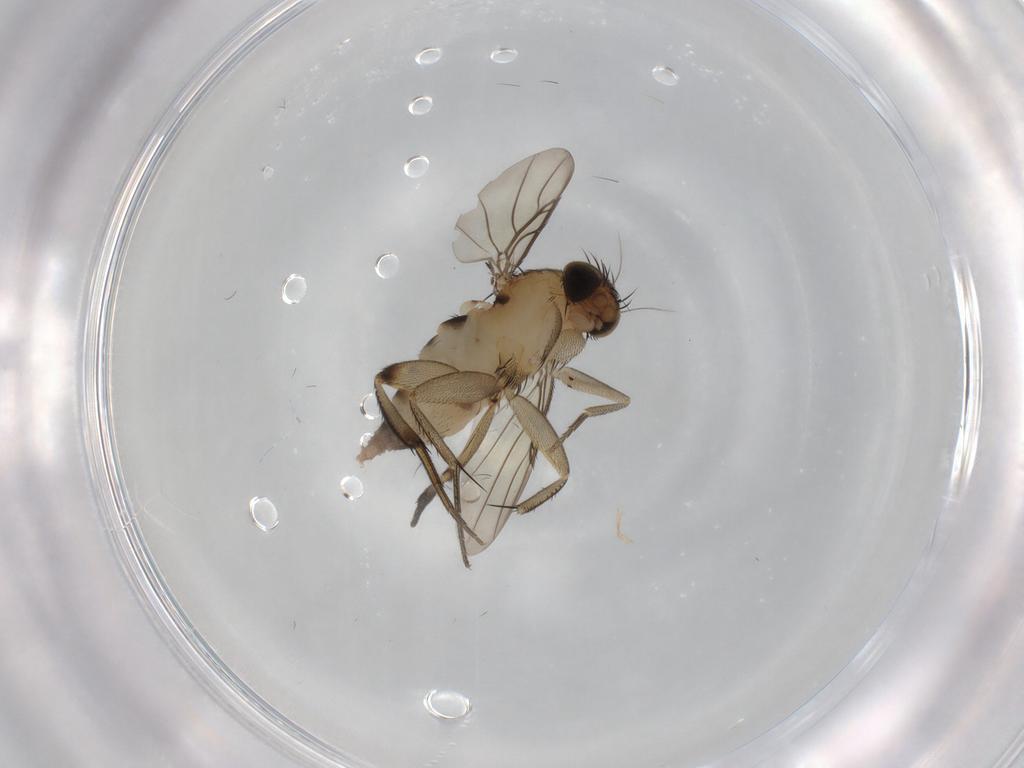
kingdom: Animalia
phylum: Arthropoda
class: Insecta
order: Diptera
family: Phoridae
